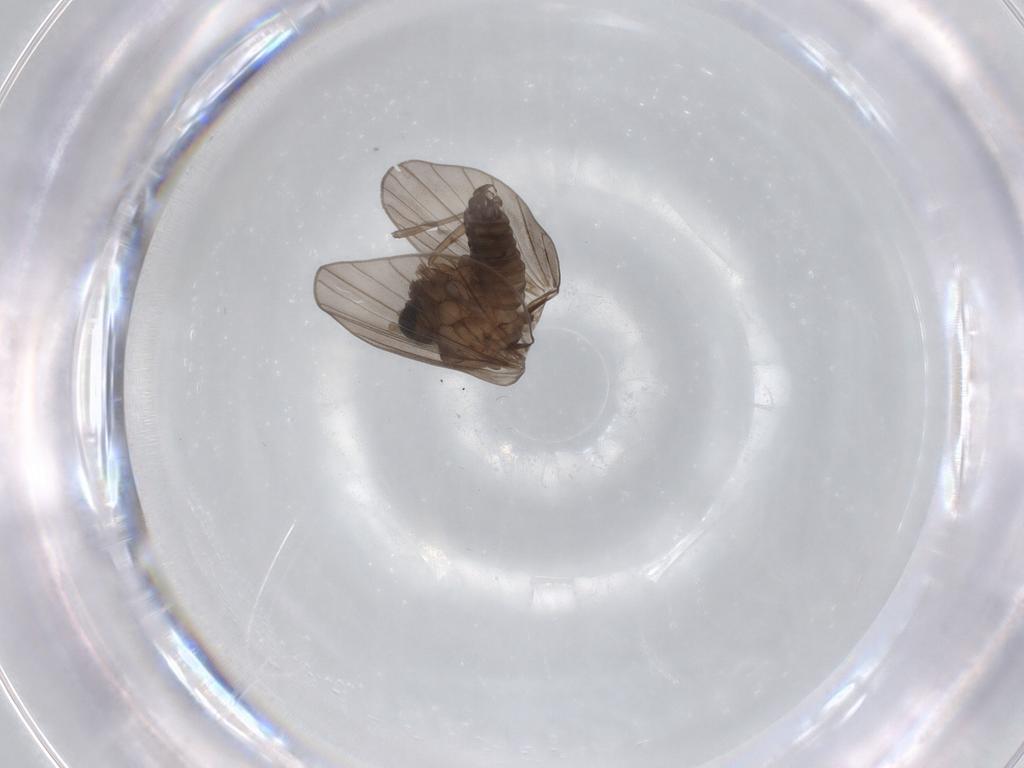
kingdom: Animalia
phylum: Arthropoda
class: Insecta
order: Diptera
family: Psychodidae
